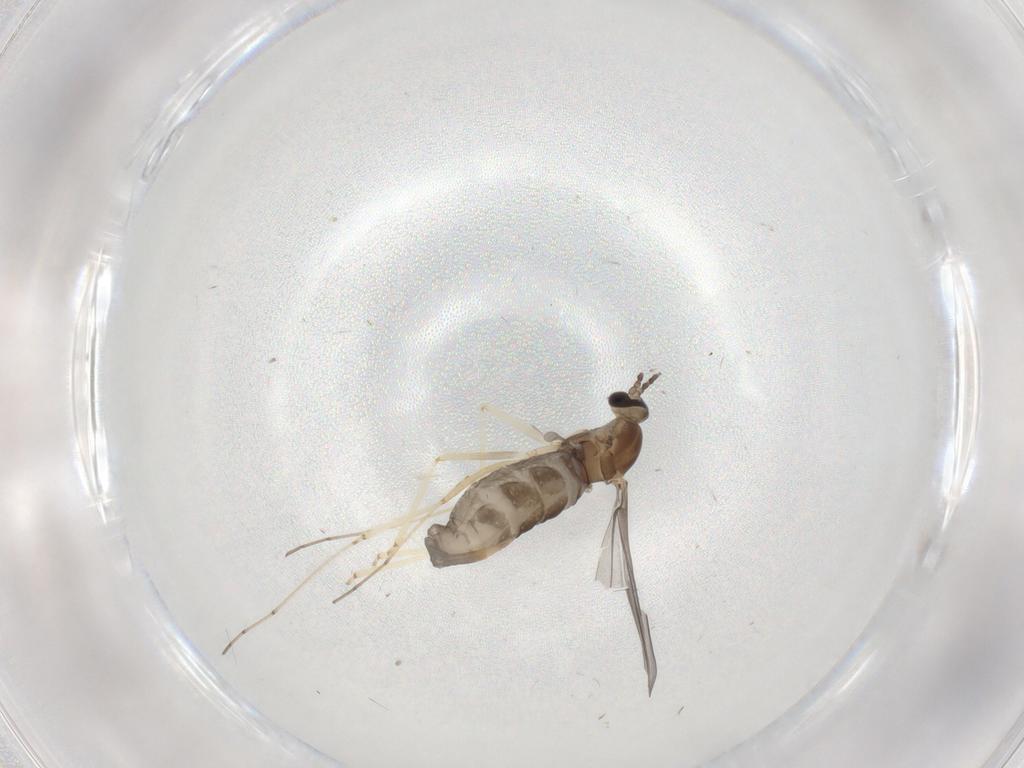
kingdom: Animalia
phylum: Arthropoda
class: Insecta
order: Diptera
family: Cecidomyiidae
